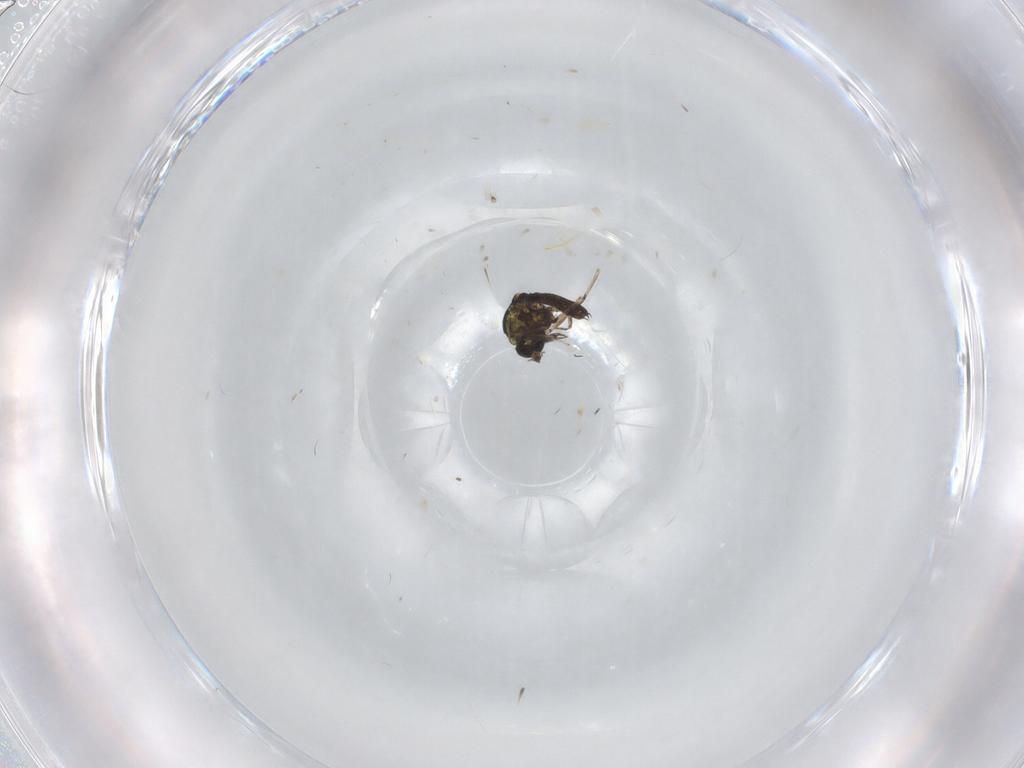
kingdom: Animalia
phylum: Arthropoda
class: Insecta
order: Diptera
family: Ceratopogonidae
